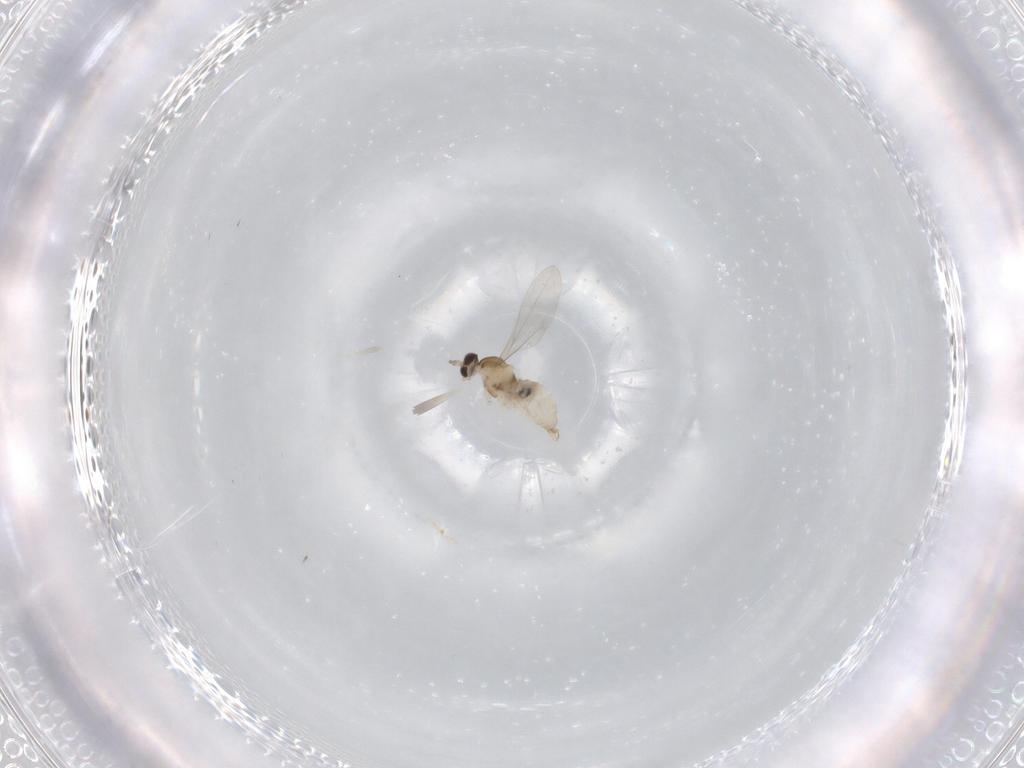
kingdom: Animalia
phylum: Arthropoda
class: Insecta
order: Diptera
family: Cecidomyiidae
